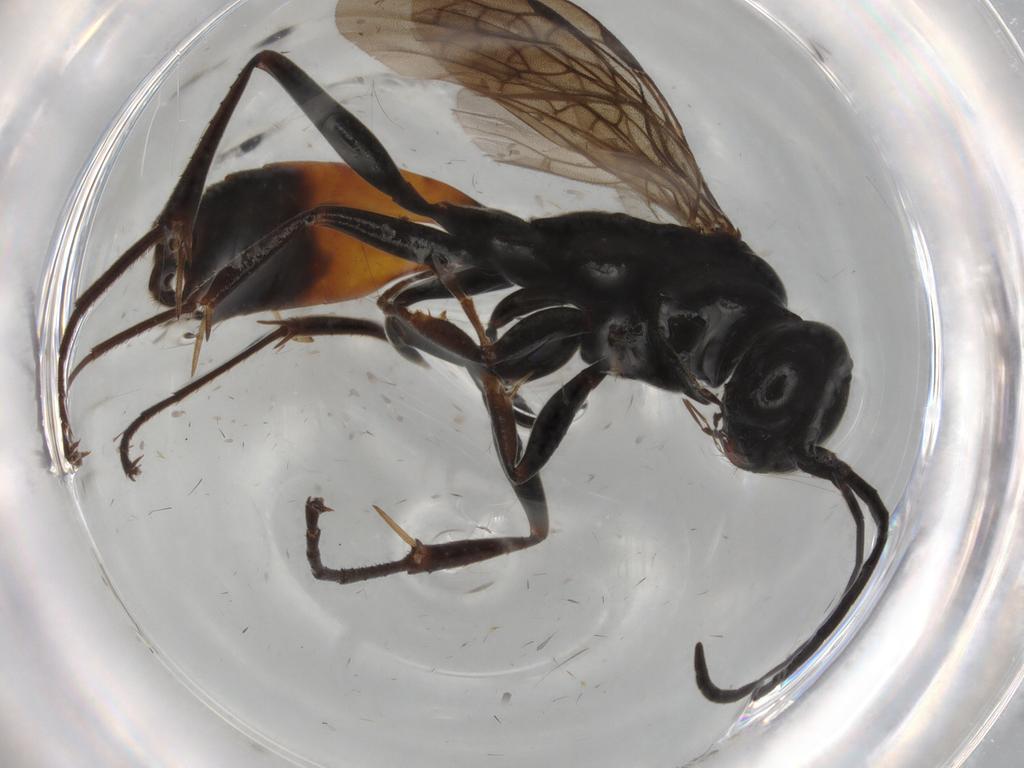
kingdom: Animalia
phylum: Arthropoda
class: Insecta
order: Hymenoptera
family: Pompilidae
